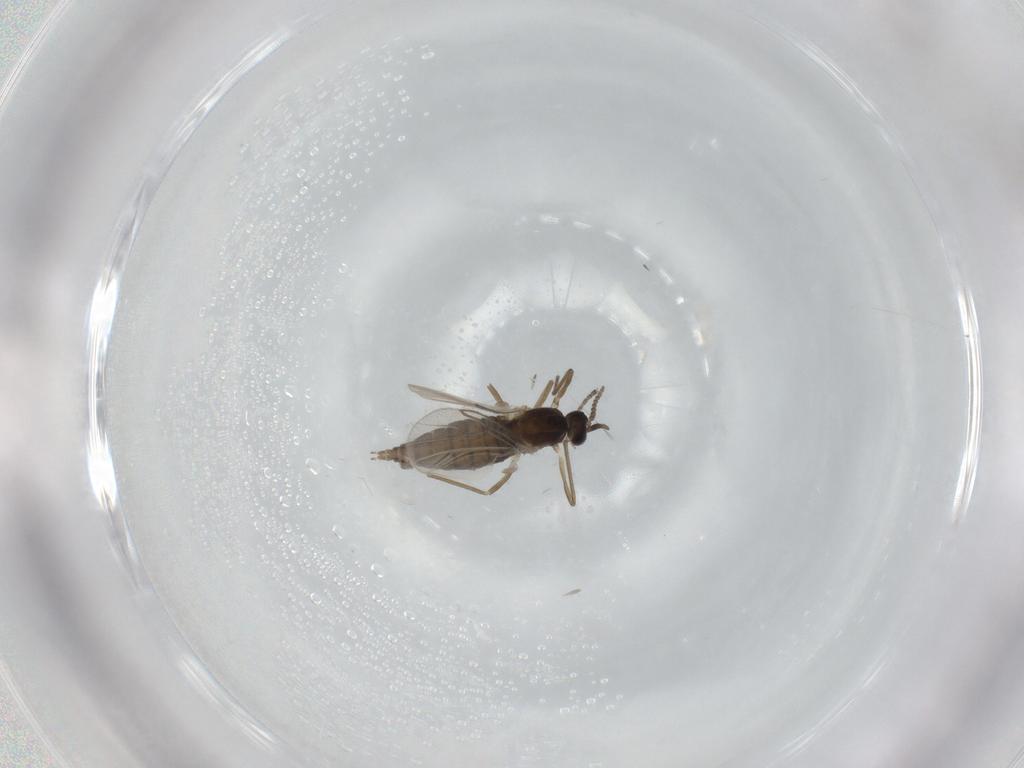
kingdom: Animalia
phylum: Arthropoda
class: Insecta
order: Diptera
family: Cecidomyiidae
